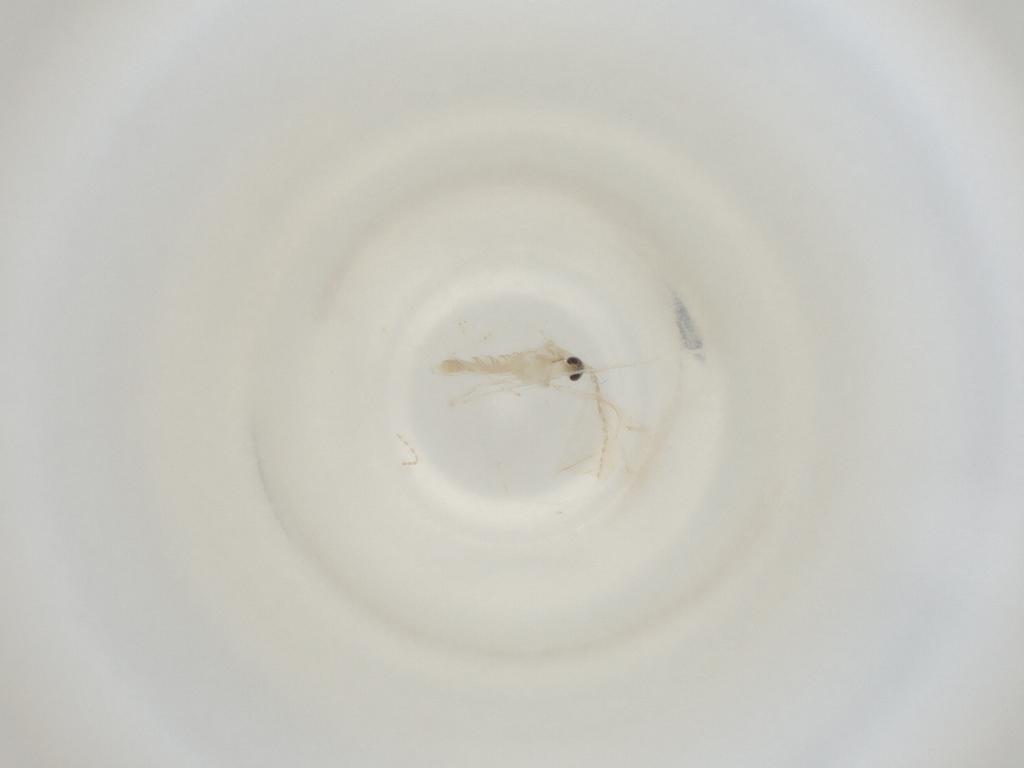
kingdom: Animalia
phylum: Arthropoda
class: Insecta
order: Diptera
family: Cecidomyiidae
